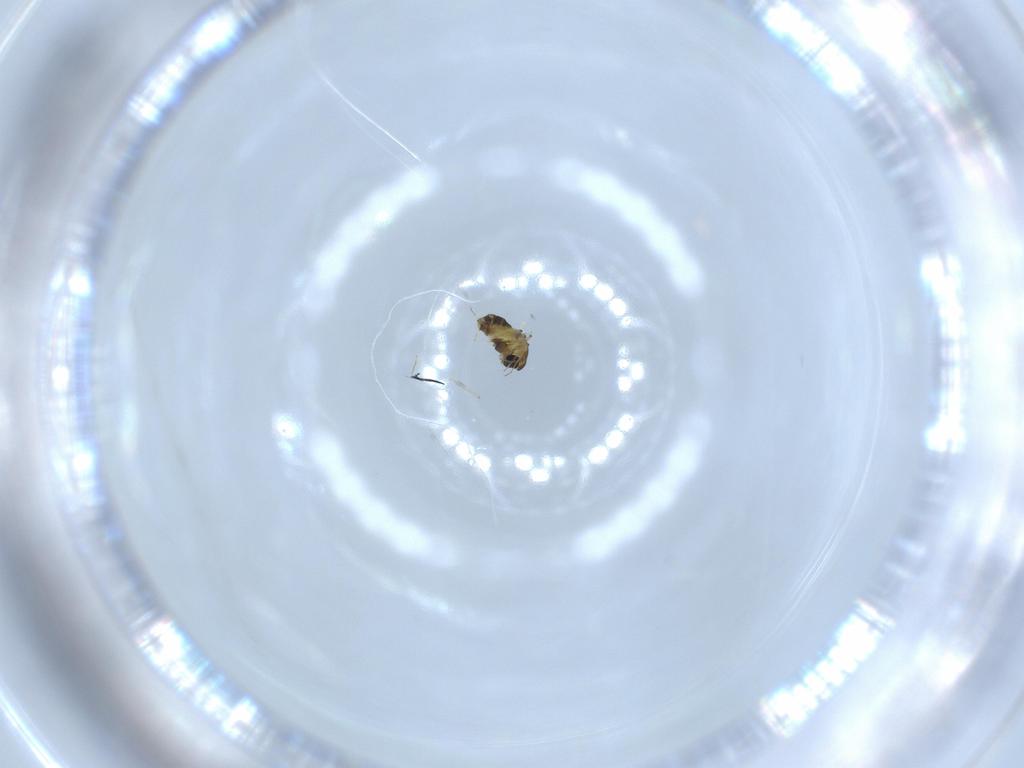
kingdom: Animalia
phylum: Arthropoda
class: Insecta
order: Diptera
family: Chironomidae
